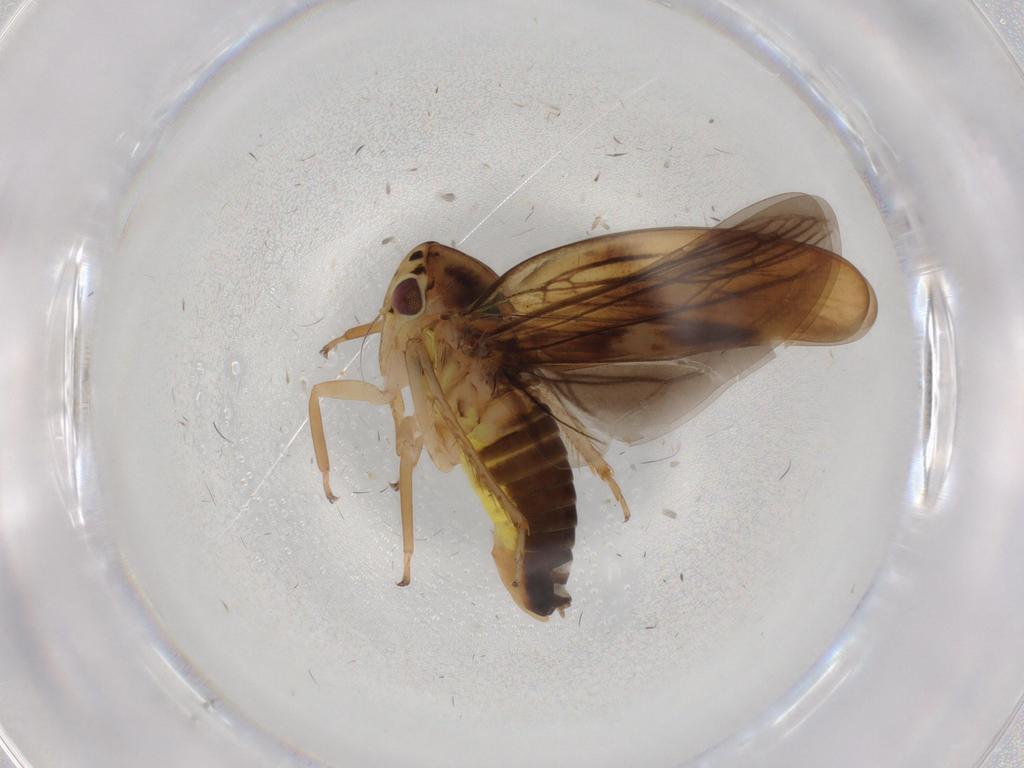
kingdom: Animalia
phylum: Arthropoda
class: Insecta
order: Hemiptera
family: Cicadellidae
